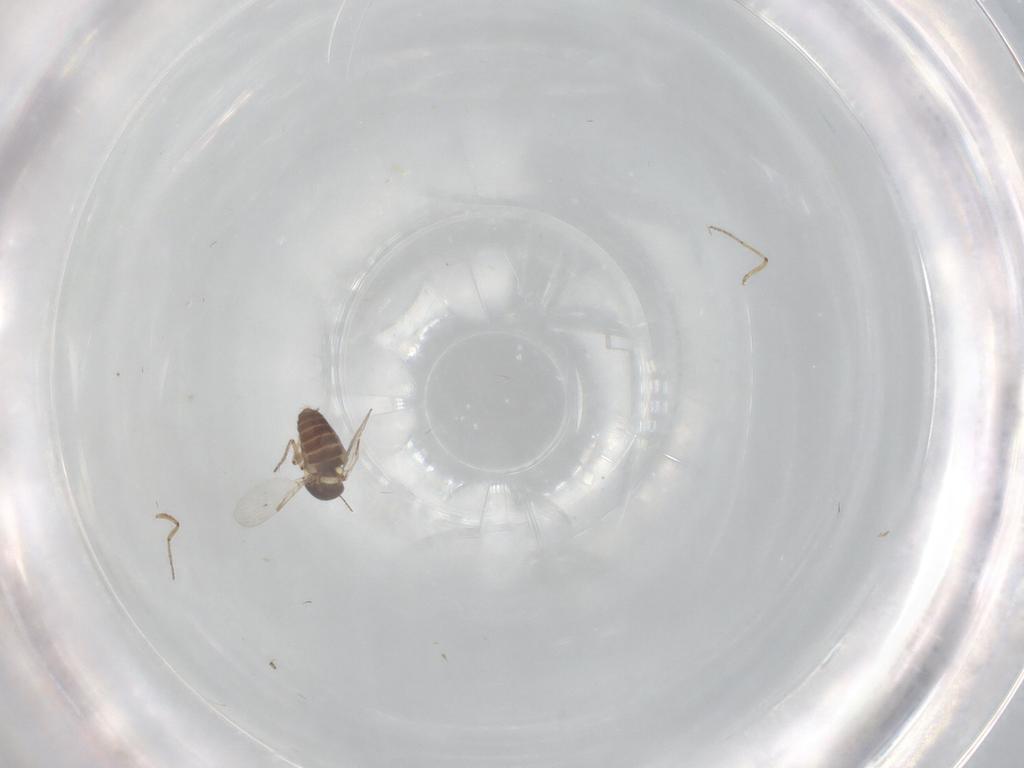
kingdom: Animalia
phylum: Arthropoda
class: Insecta
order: Diptera
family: Ceratopogonidae
